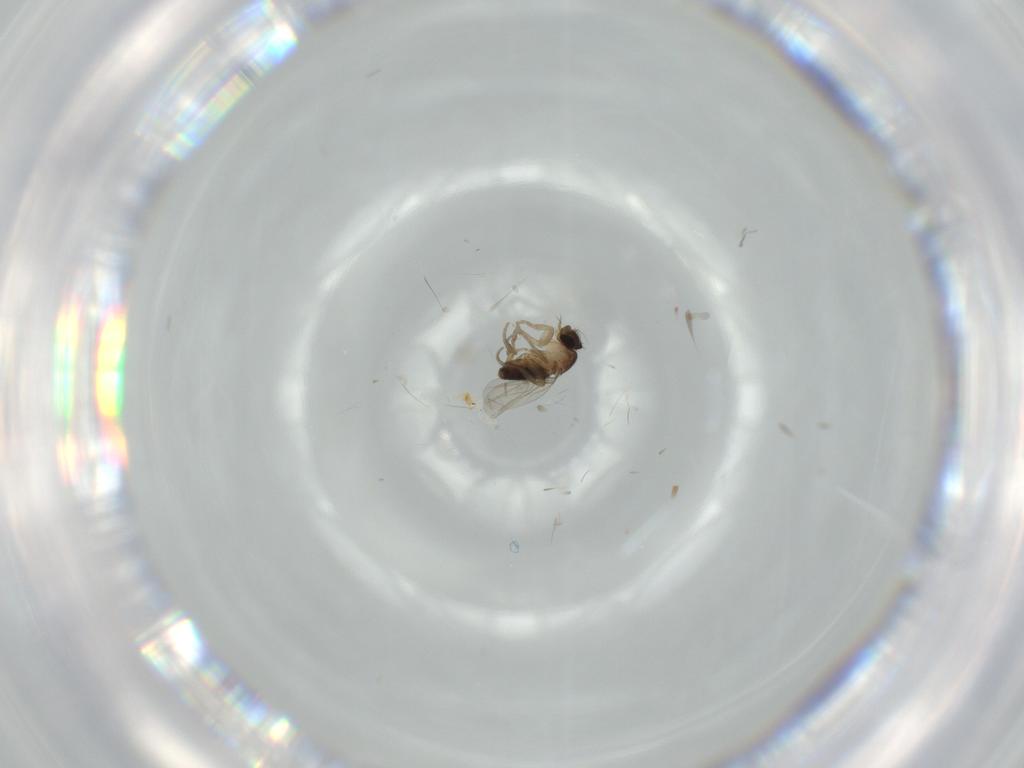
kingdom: Animalia
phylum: Arthropoda
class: Insecta
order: Diptera
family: Phoridae
